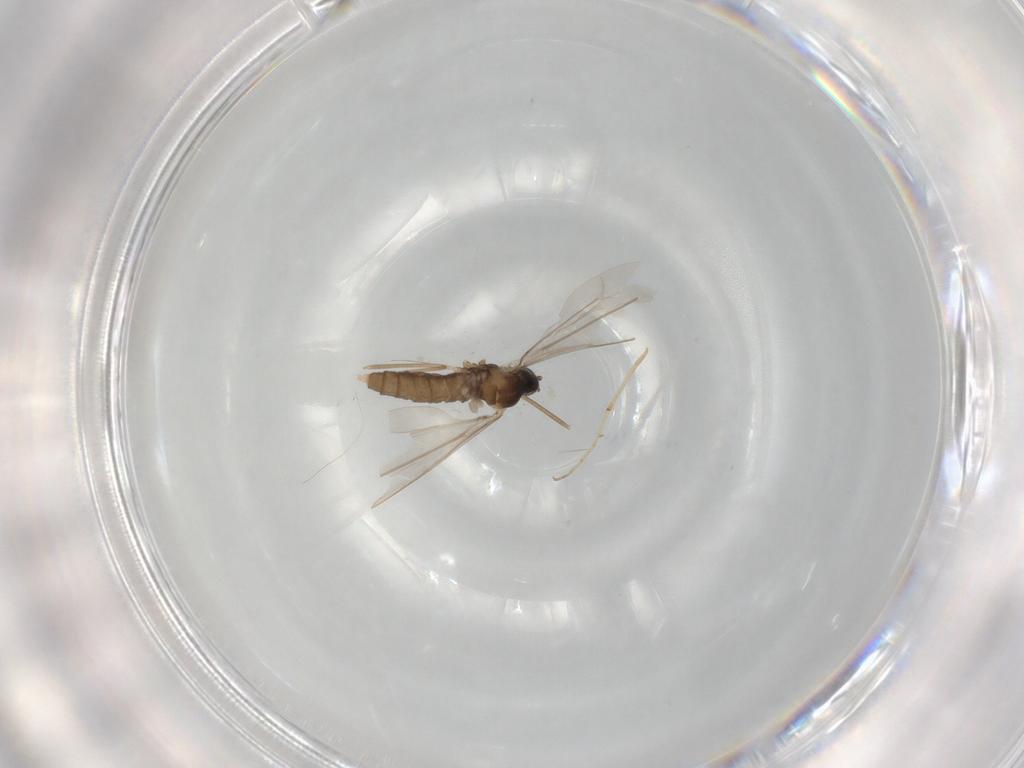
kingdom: Animalia
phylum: Arthropoda
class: Insecta
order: Diptera
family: Cecidomyiidae
